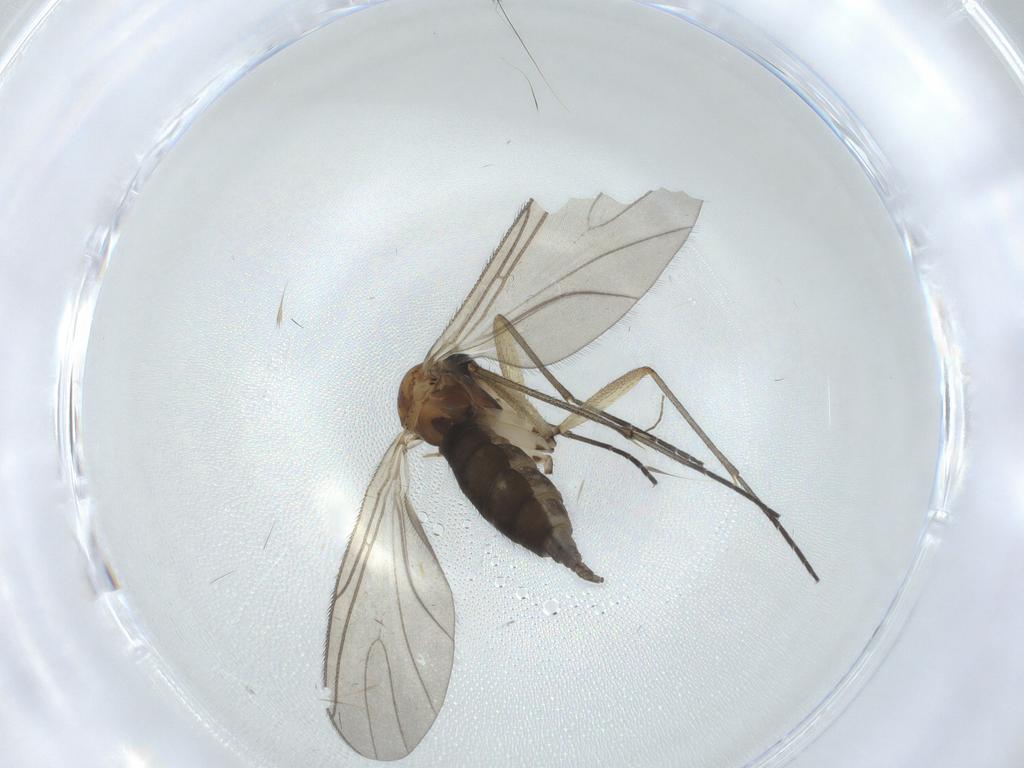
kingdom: Animalia
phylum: Arthropoda
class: Insecta
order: Diptera
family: Sciaridae
